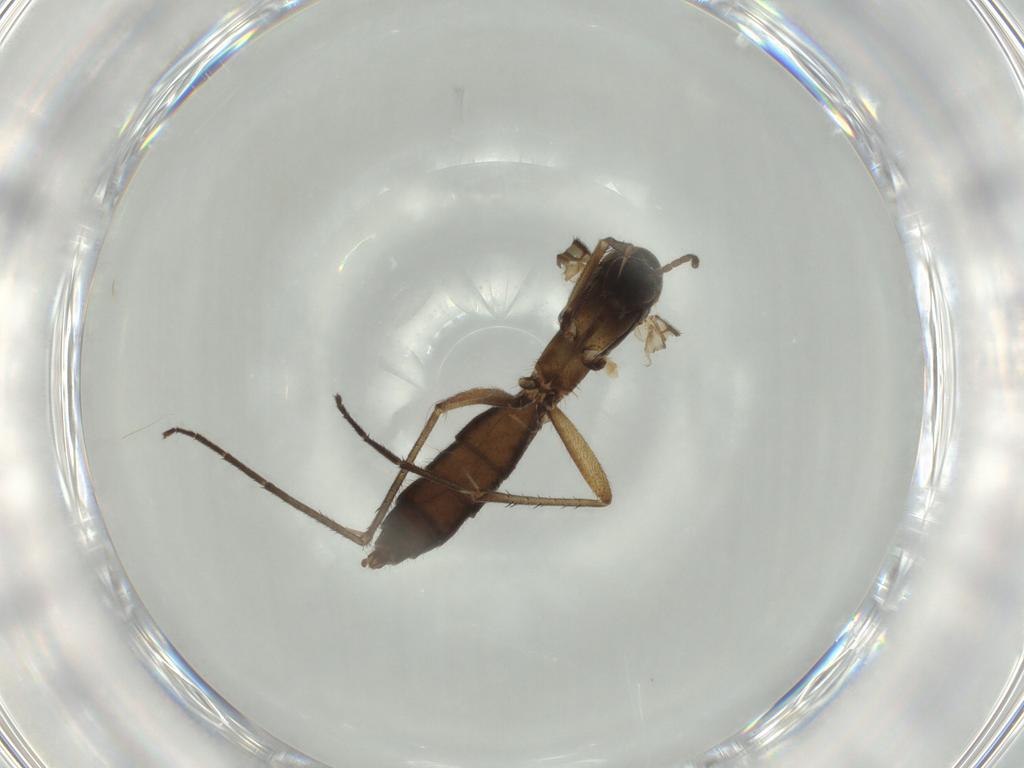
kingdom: Animalia
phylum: Arthropoda
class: Insecta
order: Diptera
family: Mycetophilidae
